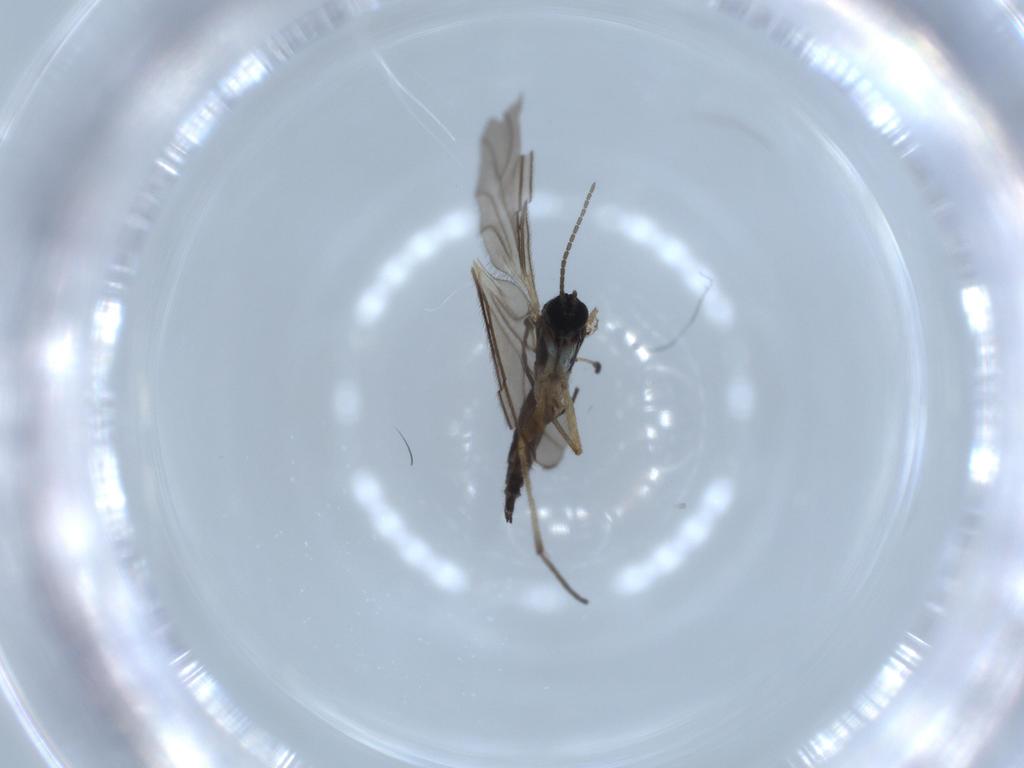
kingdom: Animalia
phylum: Arthropoda
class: Insecta
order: Diptera
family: Sciaridae
